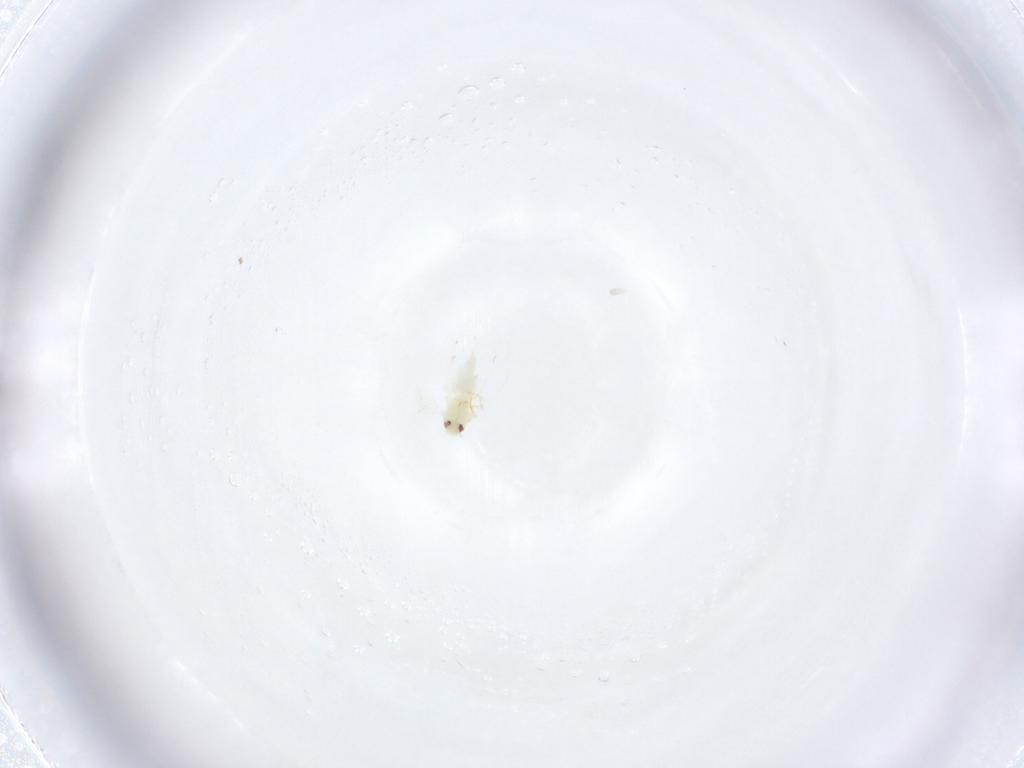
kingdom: Animalia
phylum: Arthropoda
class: Insecta
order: Hemiptera
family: Aleyrodidae
